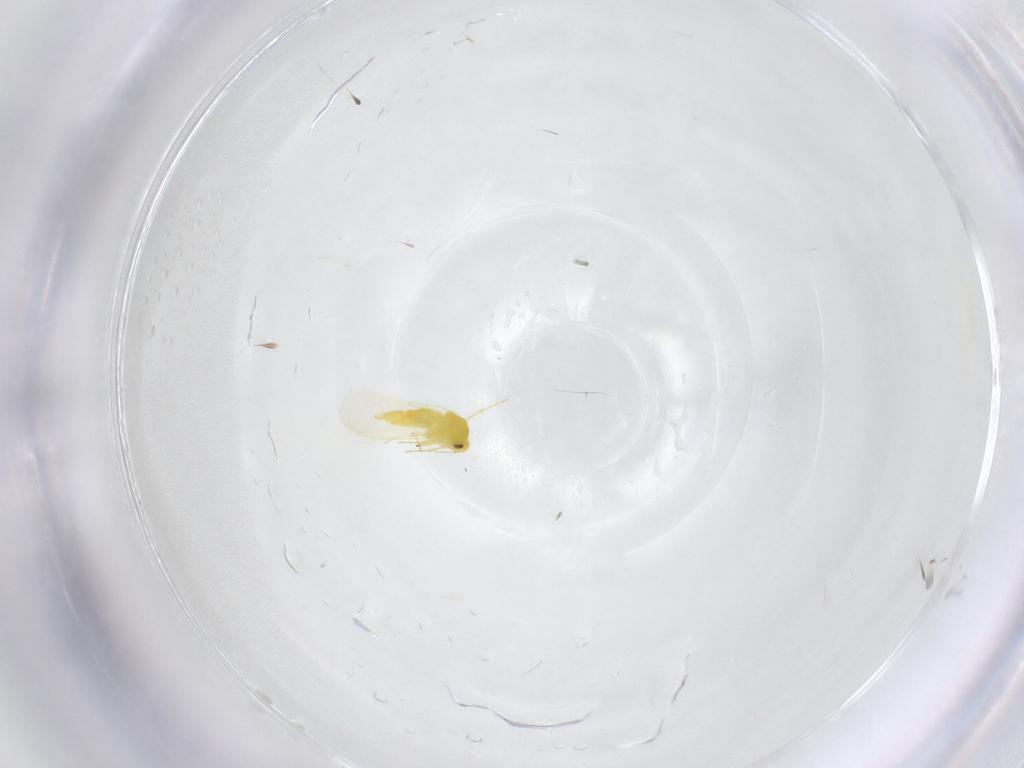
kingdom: Animalia
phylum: Arthropoda
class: Insecta
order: Hemiptera
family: Aleyrodidae
